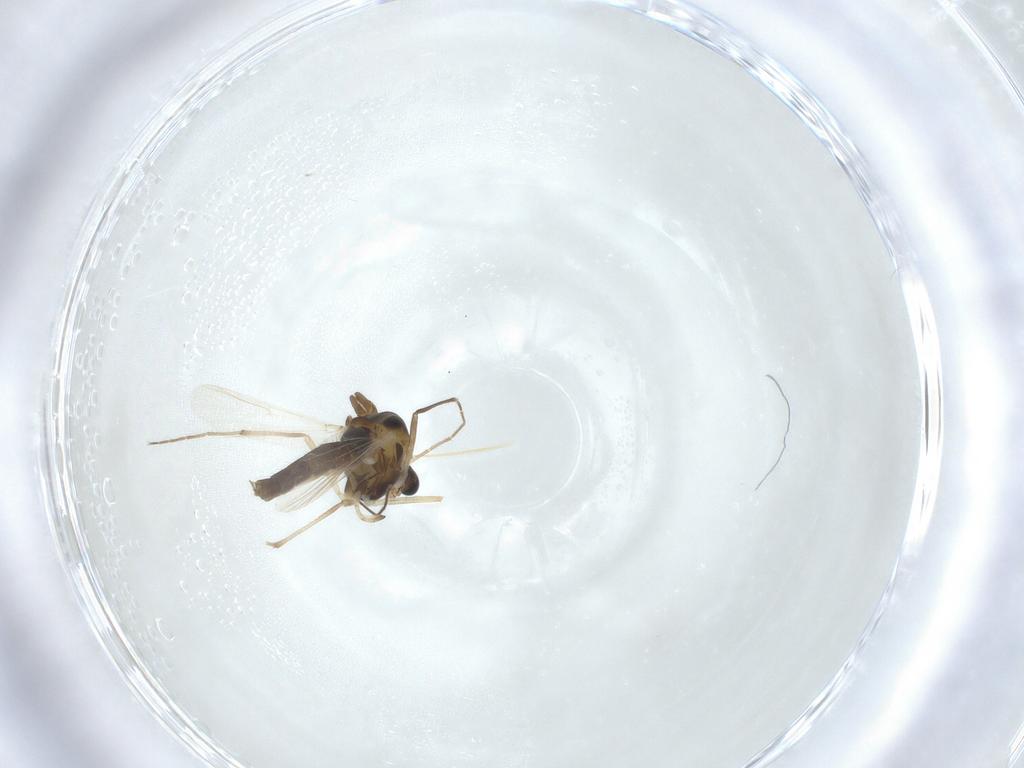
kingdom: Animalia
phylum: Arthropoda
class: Insecta
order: Diptera
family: Chironomidae
